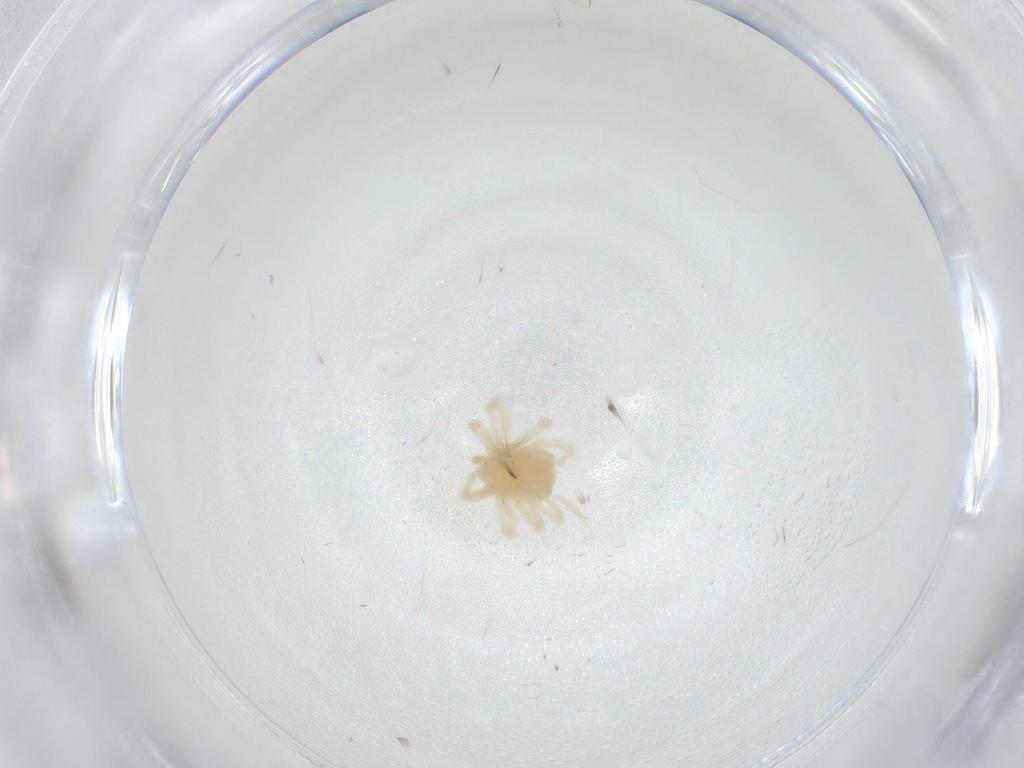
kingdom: Animalia
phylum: Arthropoda
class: Arachnida
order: Trombidiformes
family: Anystidae
